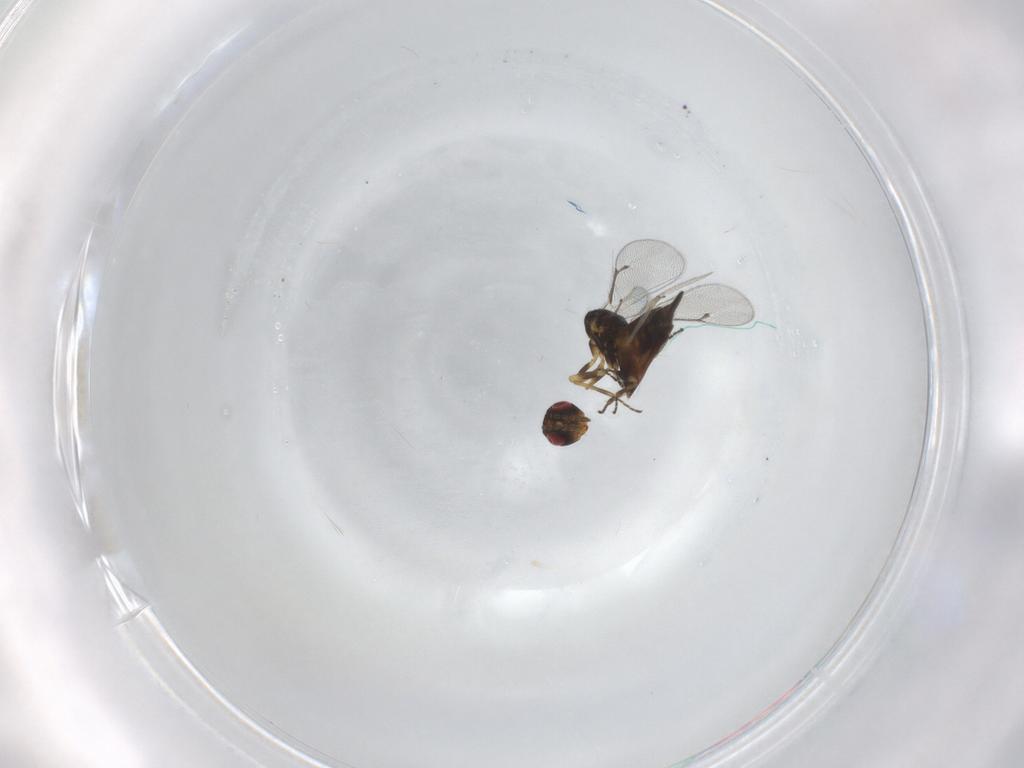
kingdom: Animalia
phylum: Arthropoda
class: Insecta
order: Hymenoptera
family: Eulophidae
